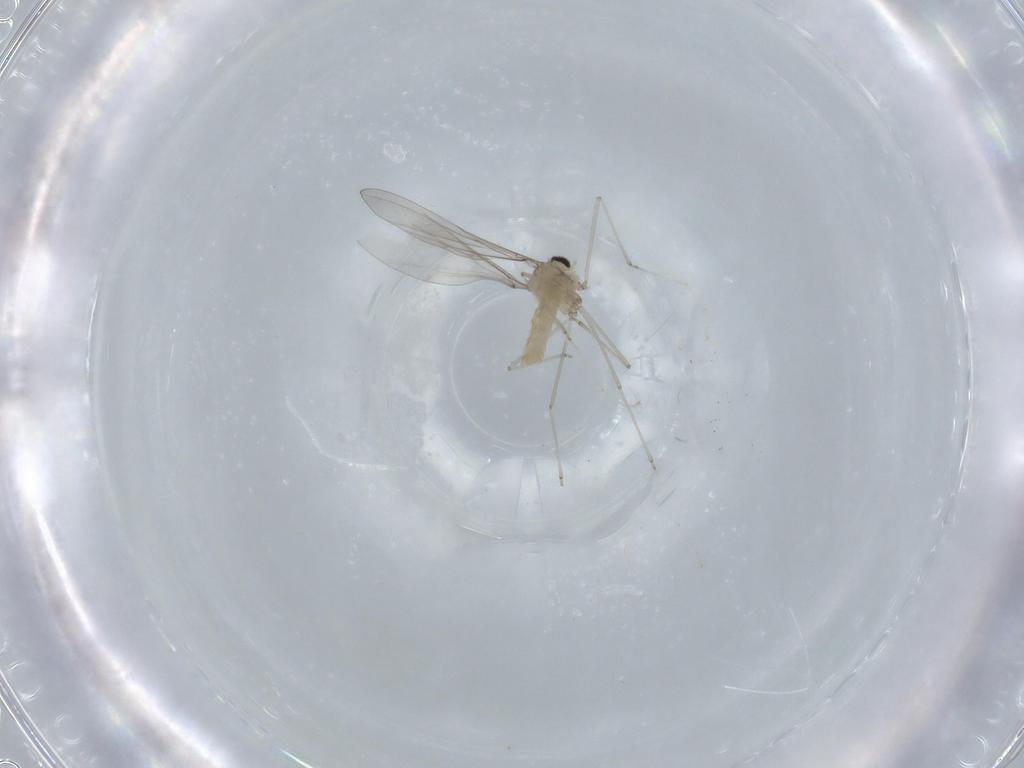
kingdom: Animalia
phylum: Arthropoda
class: Insecta
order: Diptera
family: Cecidomyiidae
